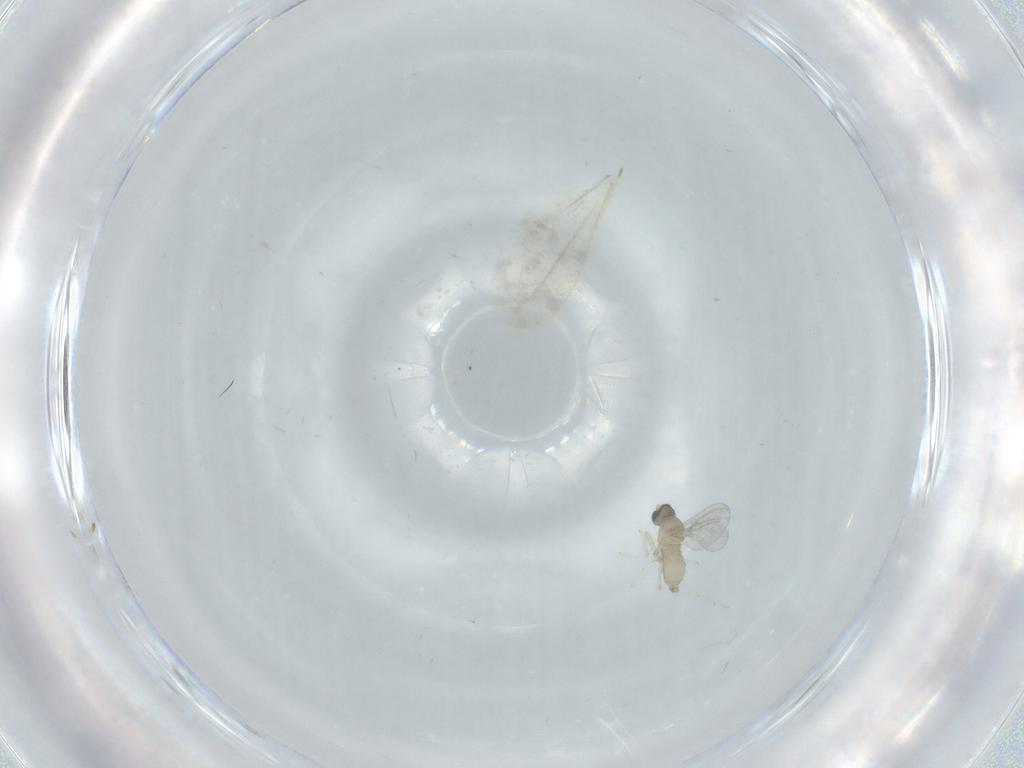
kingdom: Animalia
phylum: Arthropoda
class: Insecta
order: Diptera
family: Cecidomyiidae
